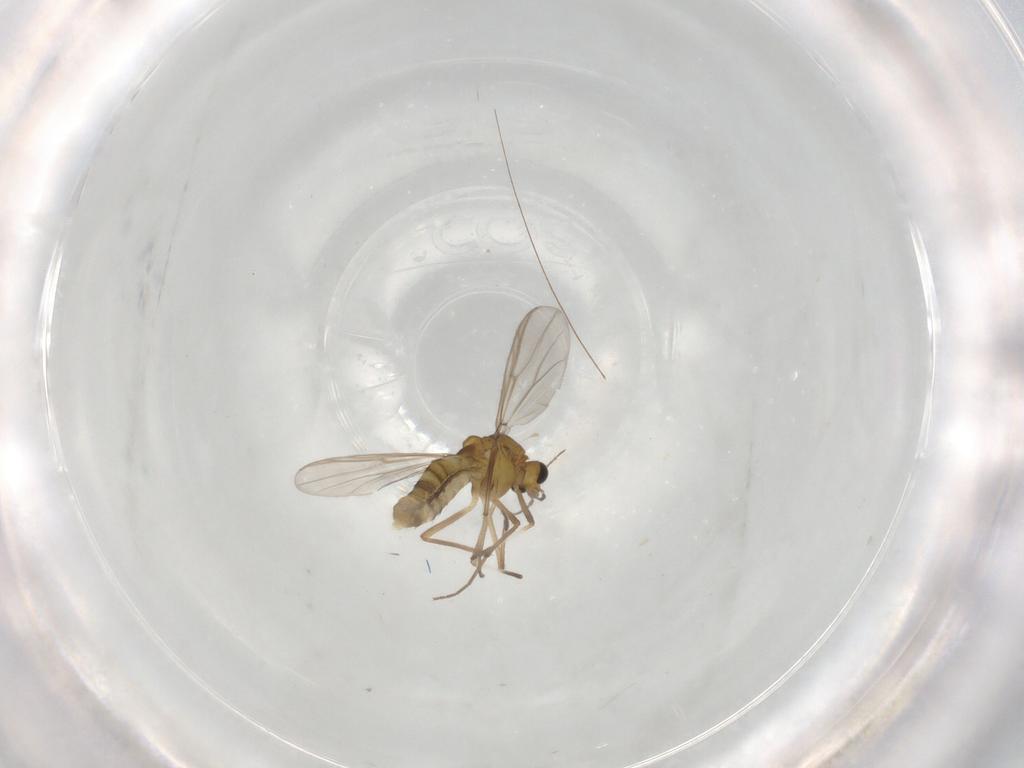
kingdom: Animalia
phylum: Arthropoda
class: Insecta
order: Diptera
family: Chironomidae
